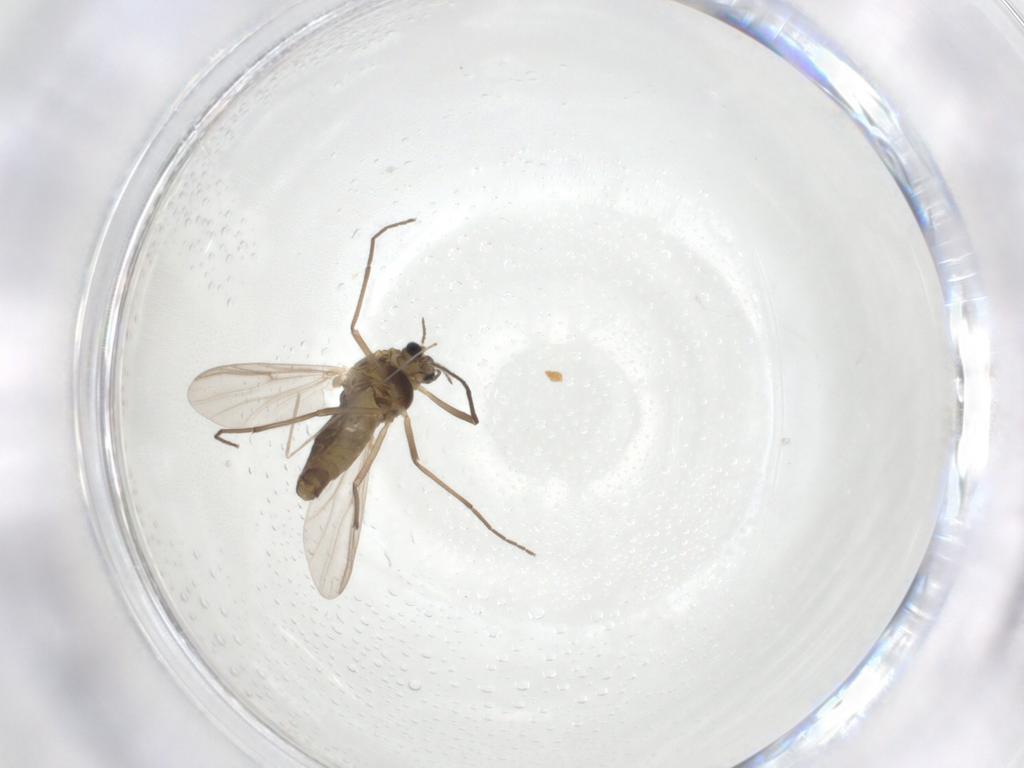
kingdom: Animalia
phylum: Arthropoda
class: Insecta
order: Diptera
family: Chironomidae
